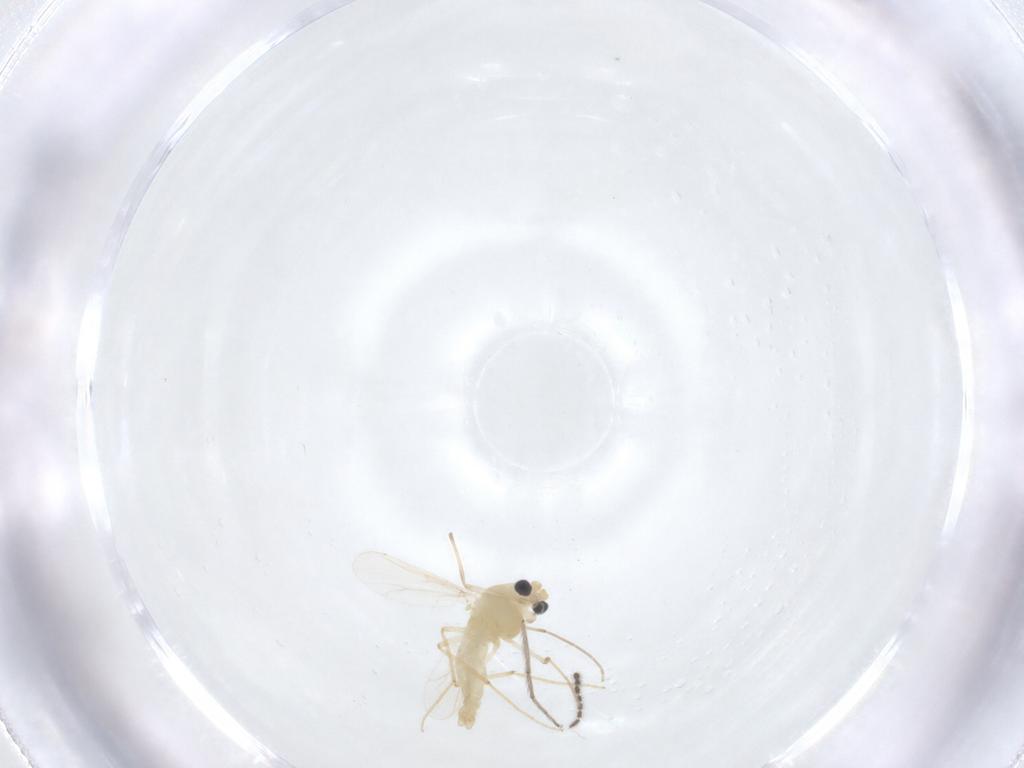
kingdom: Animalia
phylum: Arthropoda
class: Insecta
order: Diptera
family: Chironomidae
